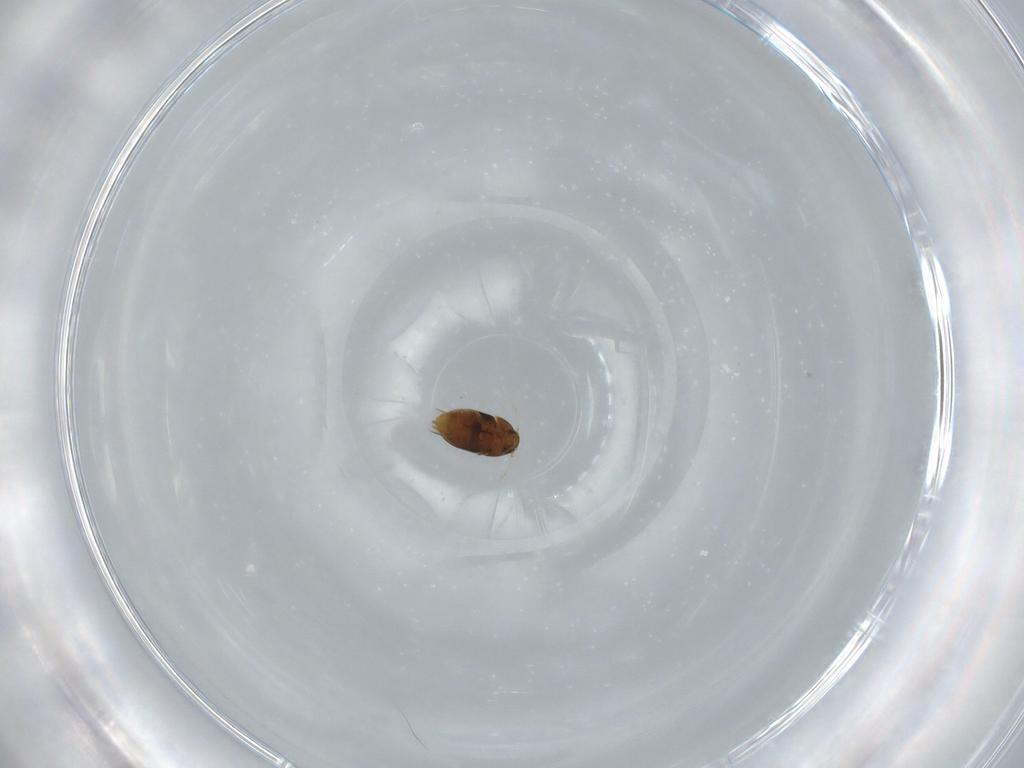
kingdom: Animalia
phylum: Arthropoda
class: Insecta
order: Coleoptera
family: Ptiliidae
